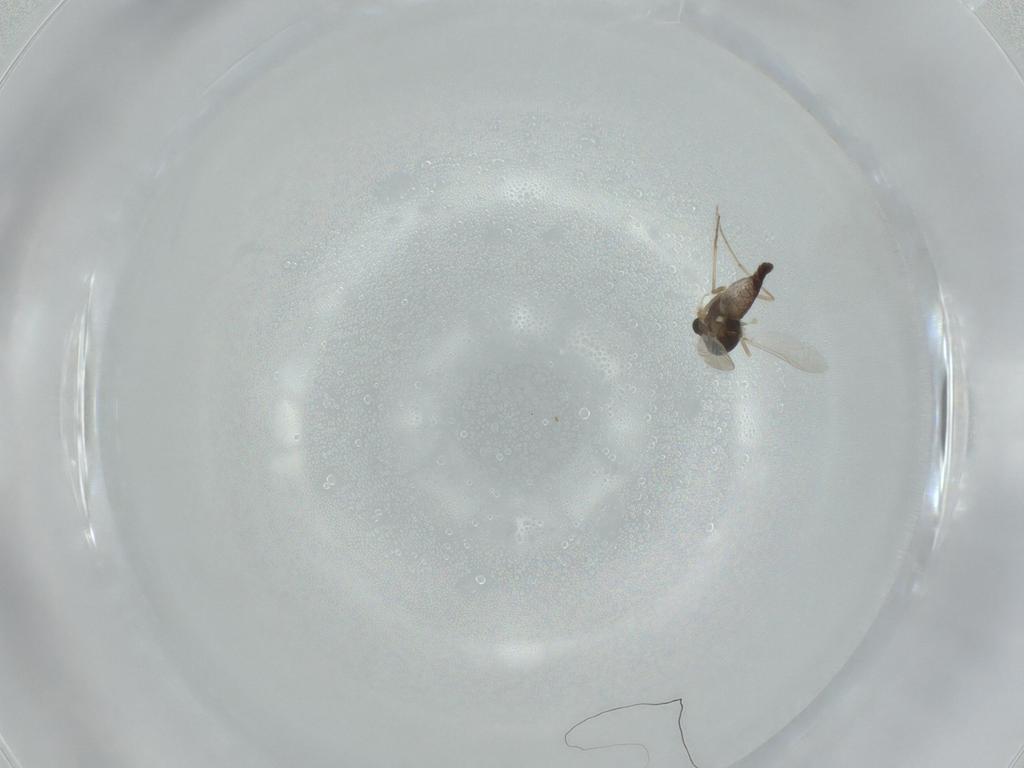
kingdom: Animalia
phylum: Arthropoda
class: Insecta
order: Diptera
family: Chironomidae
